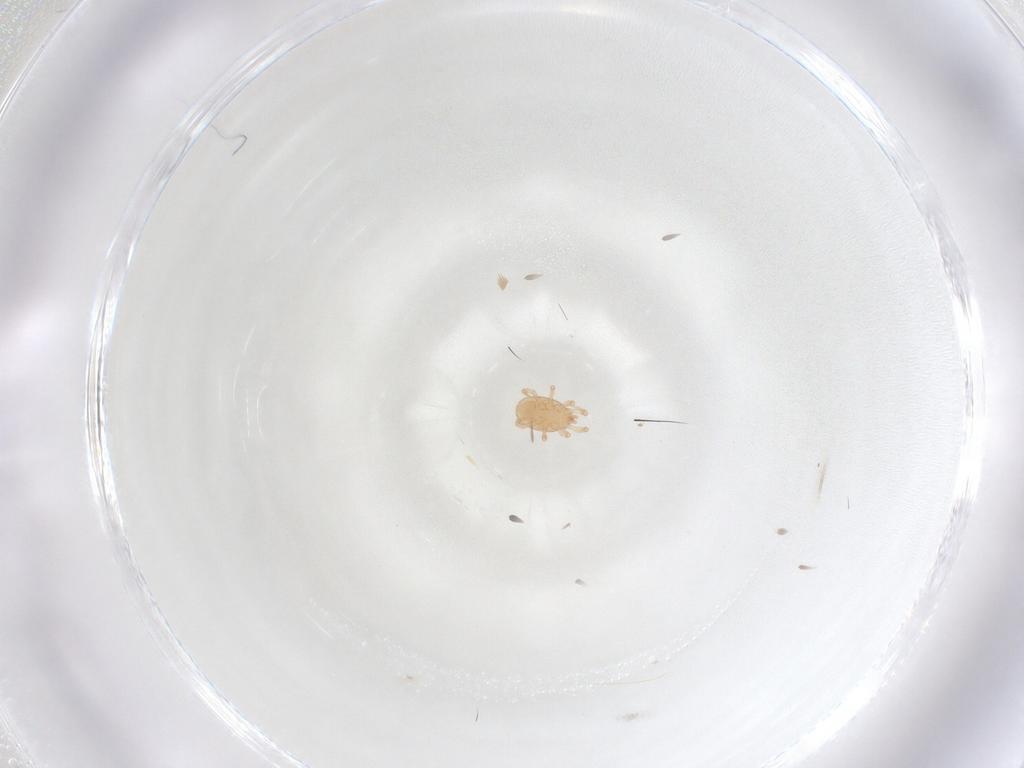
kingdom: Animalia
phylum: Arthropoda
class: Arachnida
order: Mesostigmata
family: Melicharidae
